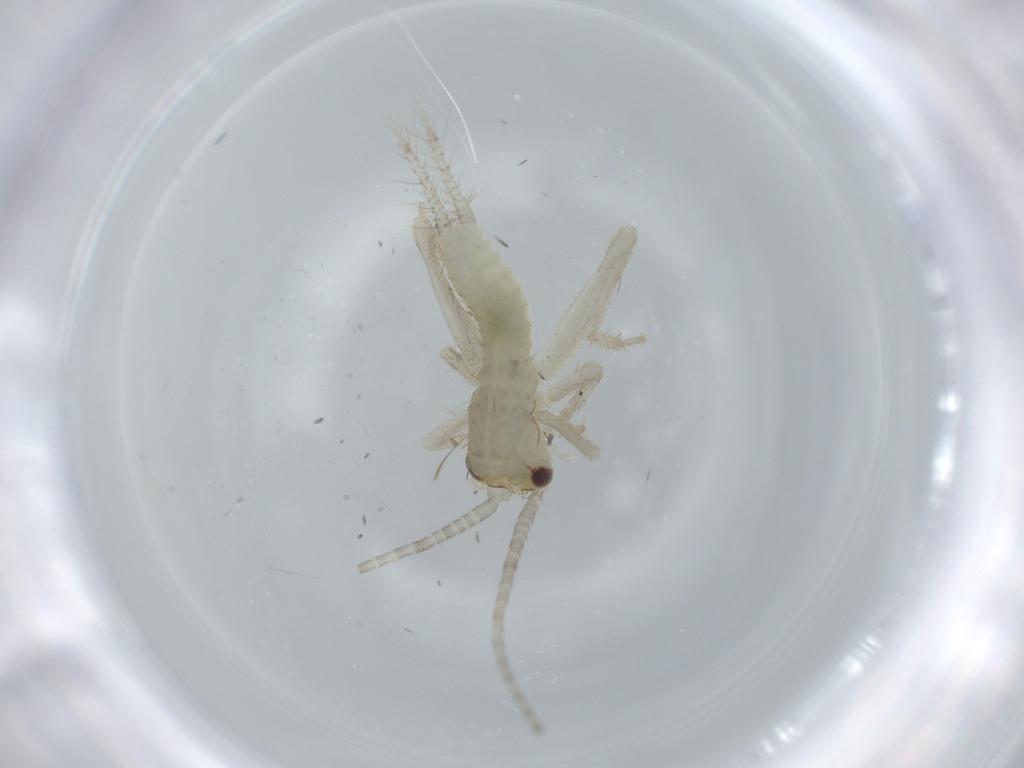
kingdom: Animalia
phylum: Arthropoda
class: Insecta
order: Orthoptera
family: Gryllidae
